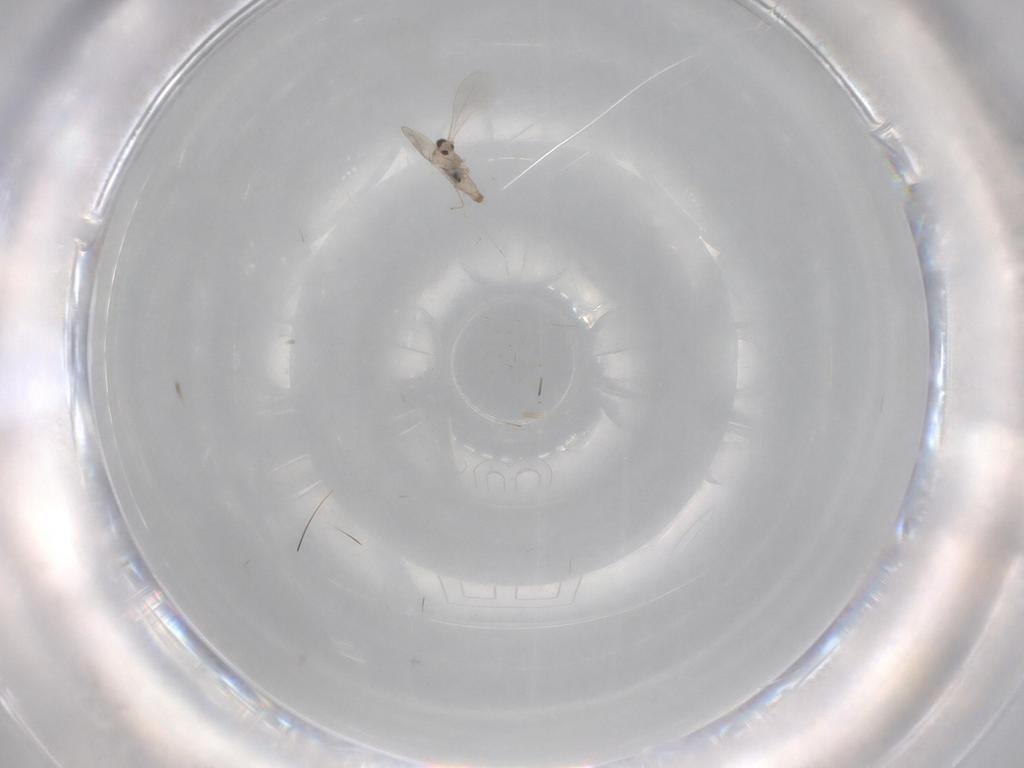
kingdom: Animalia
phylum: Arthropoda
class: Insecta
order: Diptera
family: Cecidomyiidae
